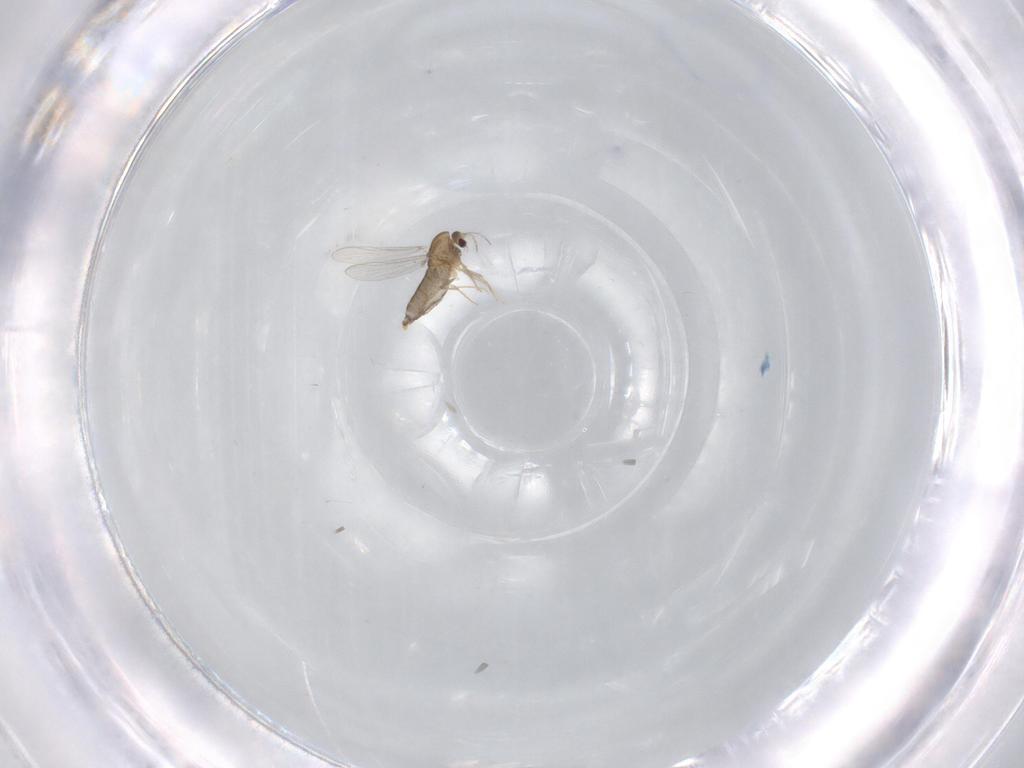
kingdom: Animalia
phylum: Arthropoda
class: Insecta
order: Diptera
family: Chironomidae
